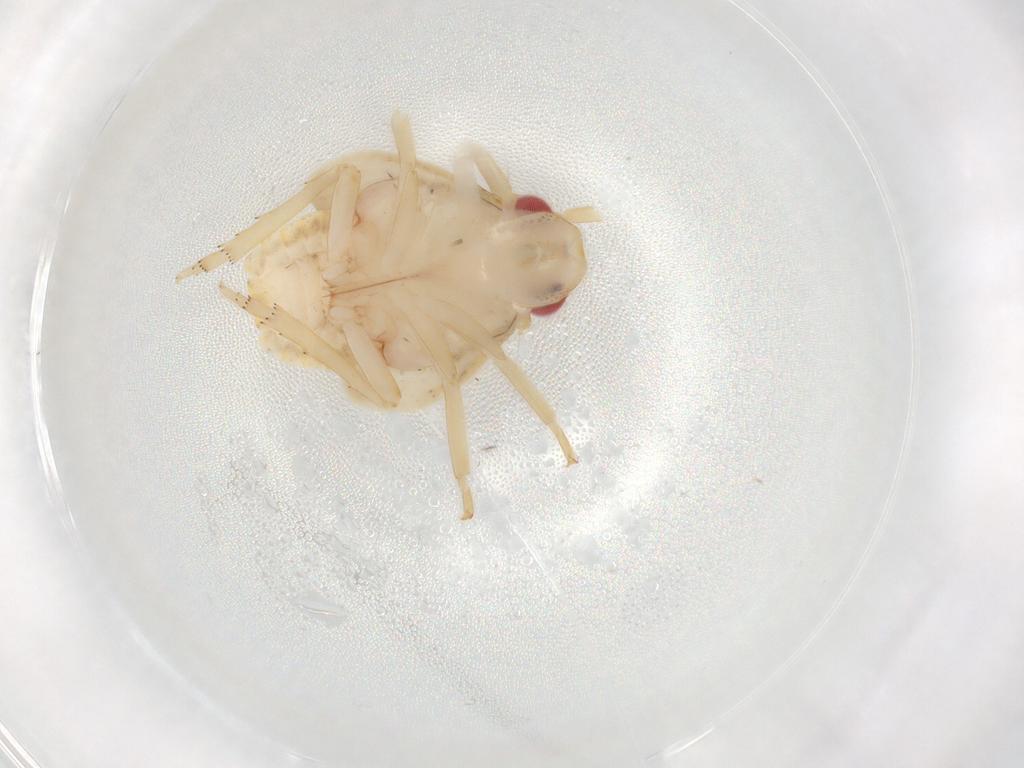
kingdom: Animalia
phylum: Arthropoda
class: Insecta
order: Hemiptera
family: Flatidae
